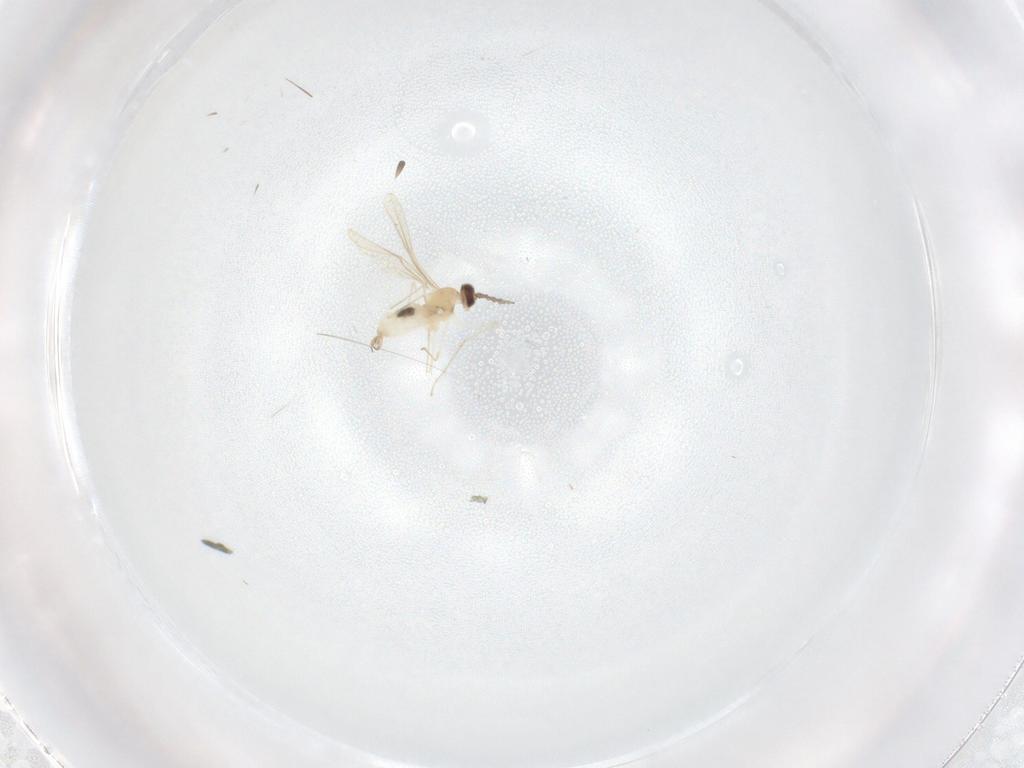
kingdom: Animalia
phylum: Arthropoda
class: Insecta
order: Diptera
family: Cecidomyiidae
